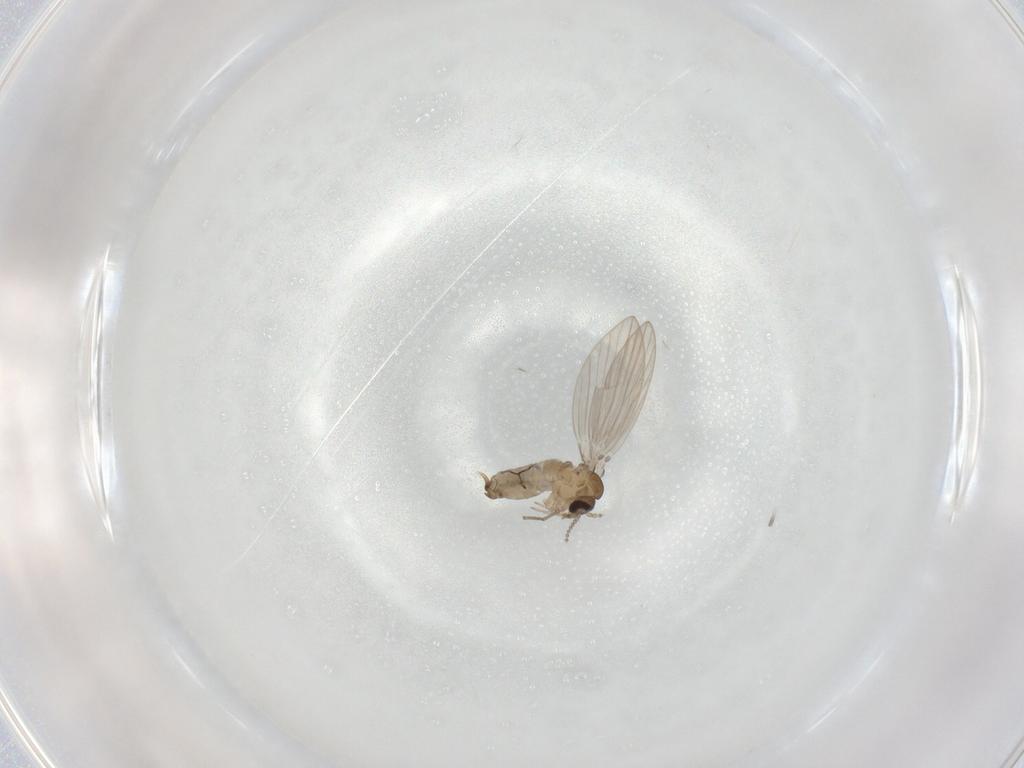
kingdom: Animalia
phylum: Arthropoda
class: Insecta
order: Diptera
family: Psychodidae
